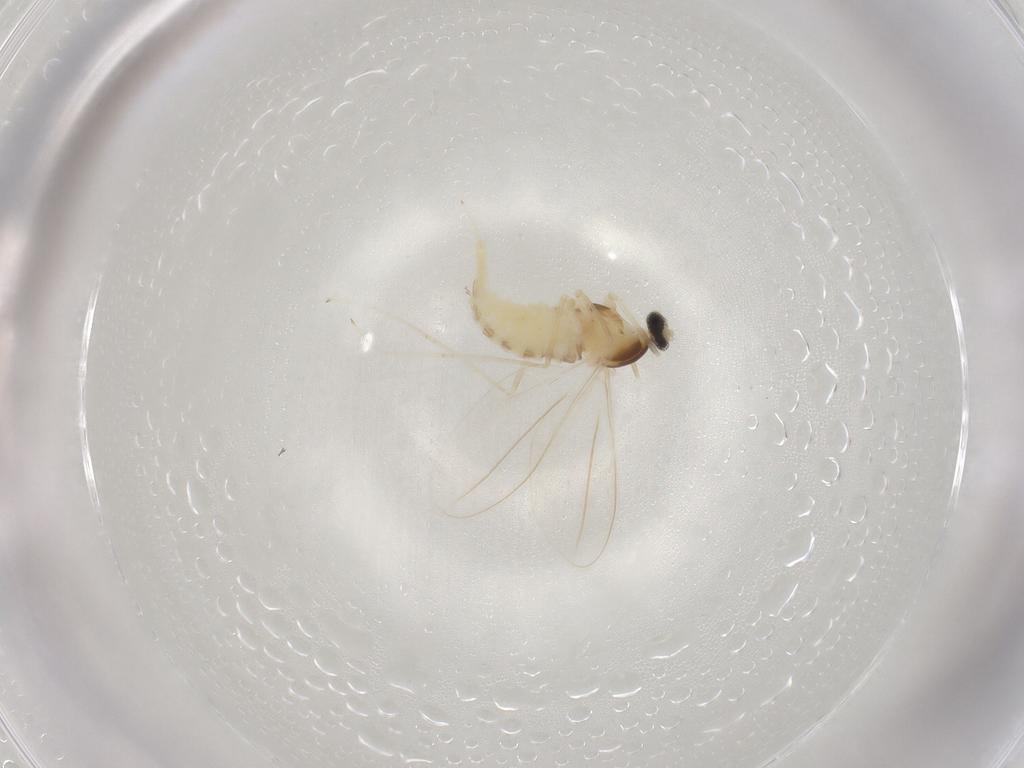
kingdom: Animalia
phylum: Arthropoda
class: Insecta
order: Diptera
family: Cecidomyiidae
